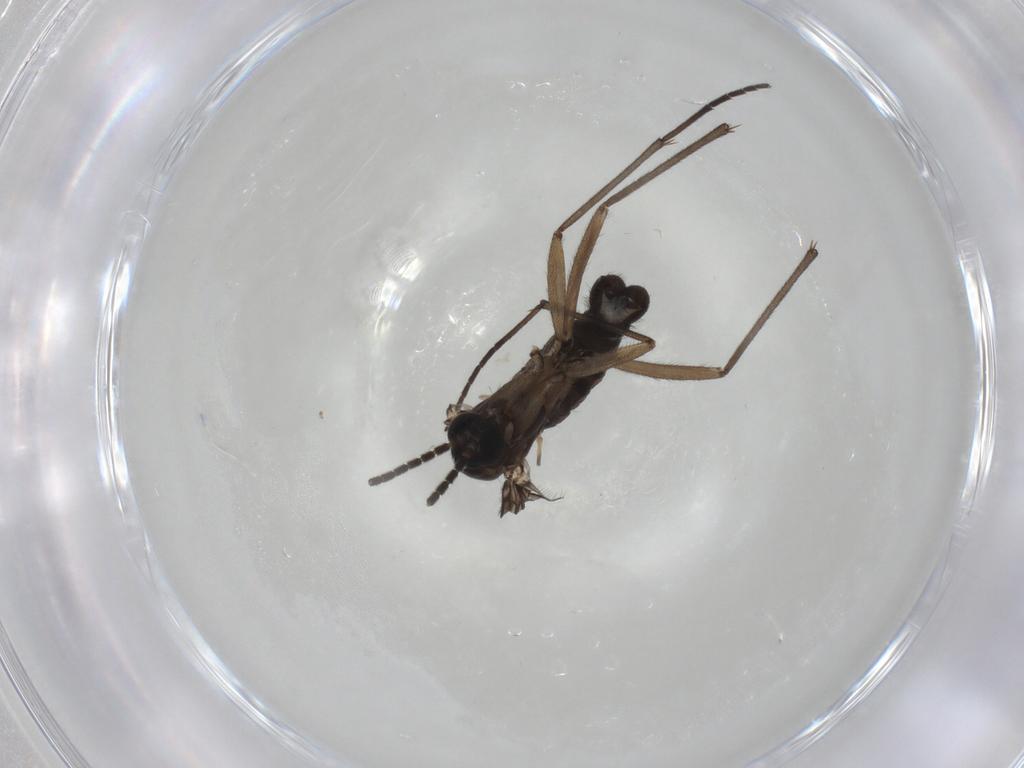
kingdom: Animalia
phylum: Arthropoda
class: Insecta
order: Diptera
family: Sciaridae
